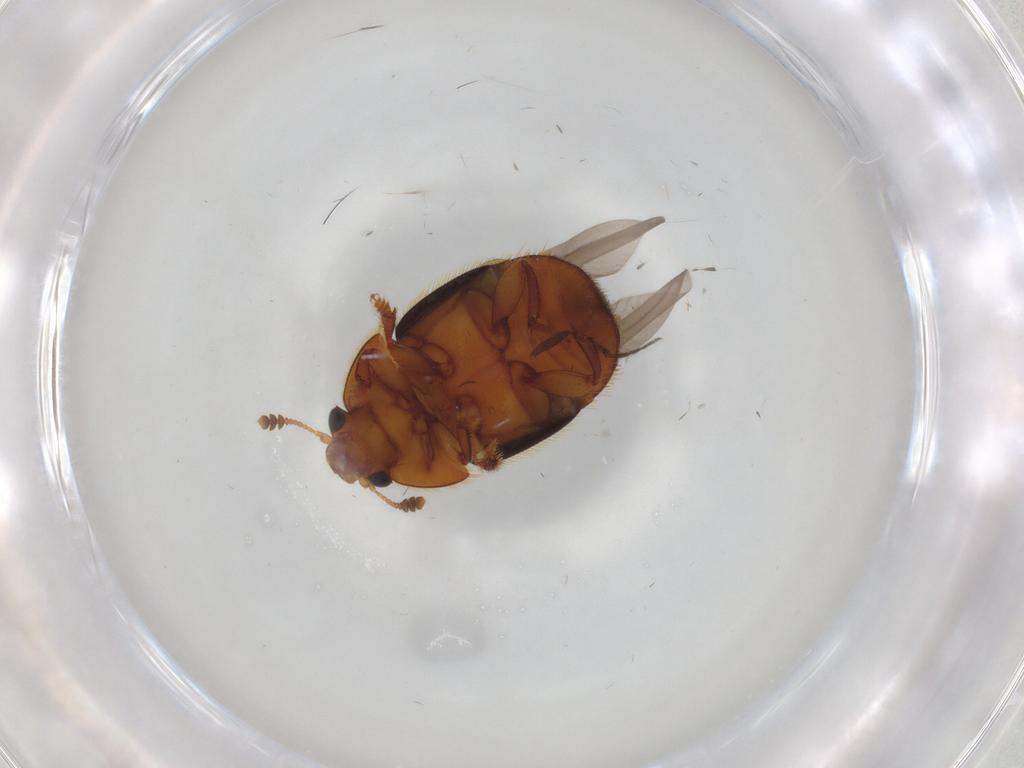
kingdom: Animalia
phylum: Arthropoda
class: Insecta
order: Coleoptera
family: Nitidulidae
